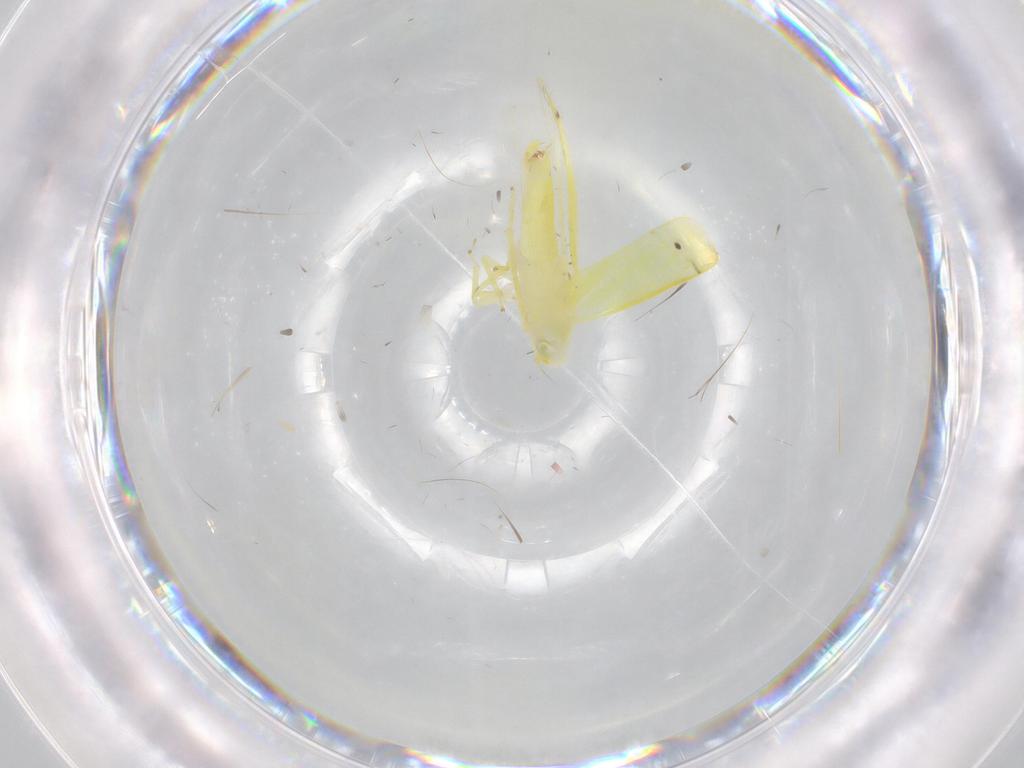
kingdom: Animalia
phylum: Arthropoda
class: Insecta
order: Hemiptera
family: Cicadellidae
